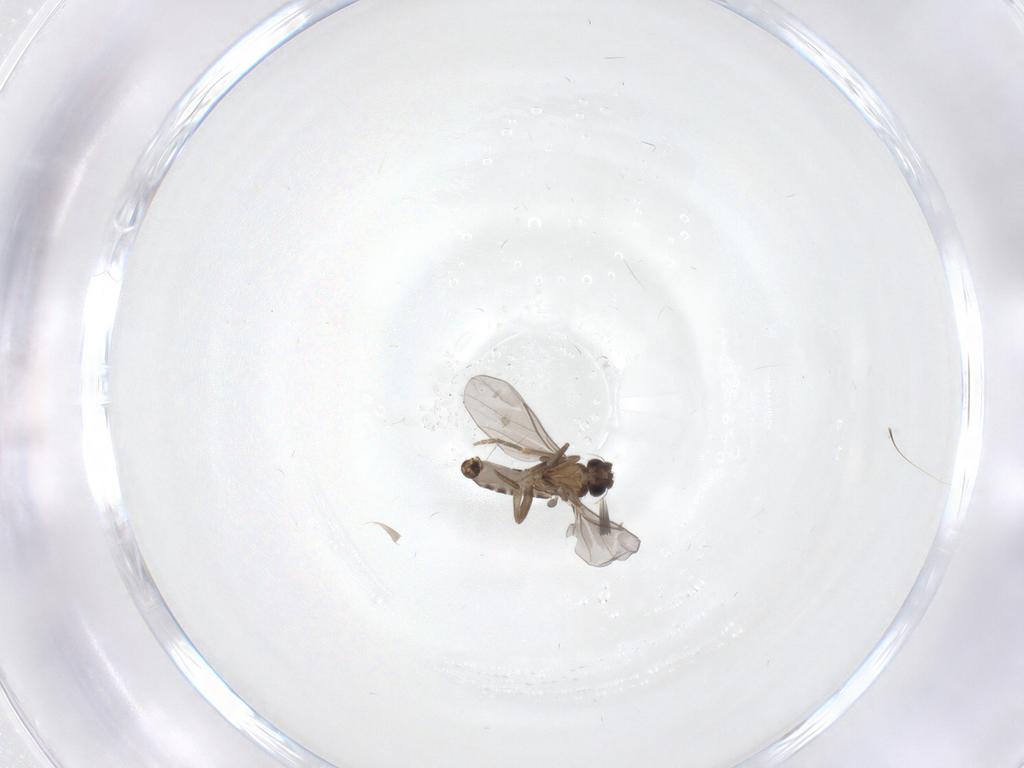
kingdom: Animalia
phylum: Arthropoda
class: Insecta
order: Diptera
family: Empididae
